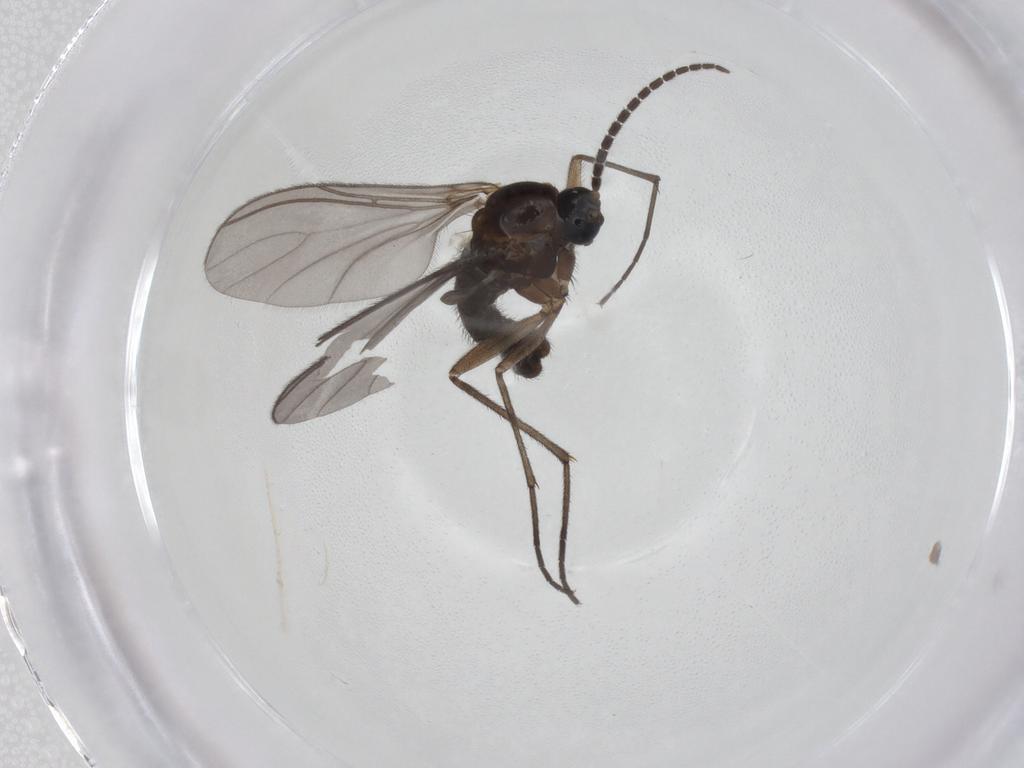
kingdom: Animalia
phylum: Arthropoda
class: Insecta
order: Diptera
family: Sciaridae
